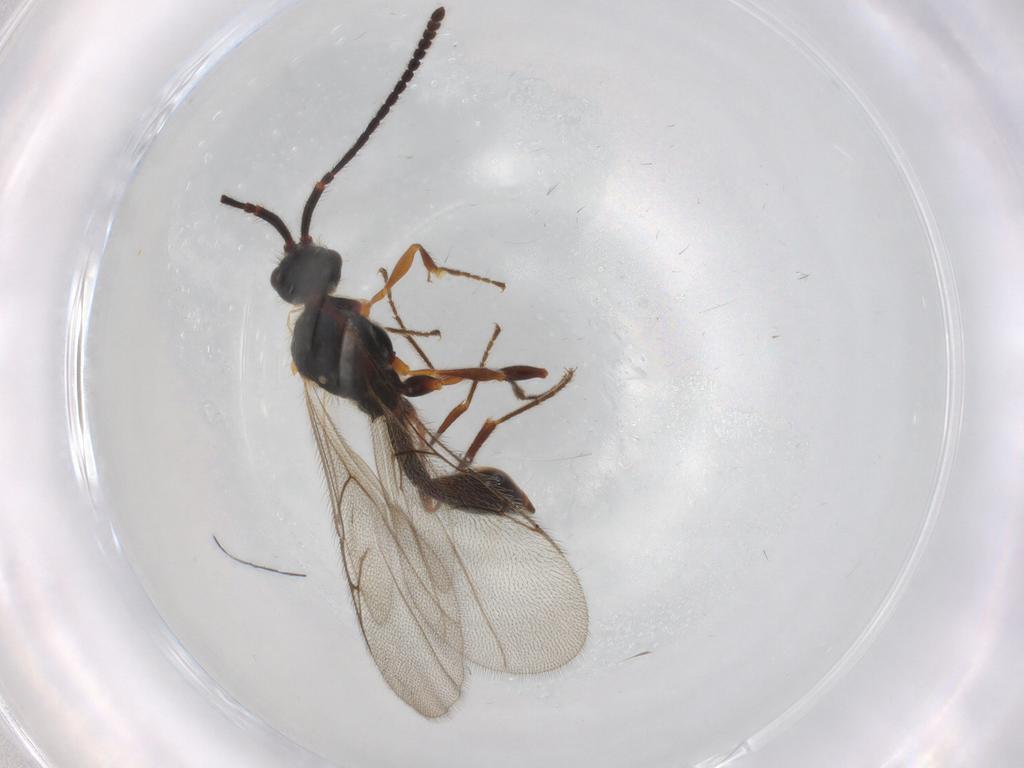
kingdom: Animalia
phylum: Arthropoda
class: Insecta
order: Hymenoptera
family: Diapriidae
